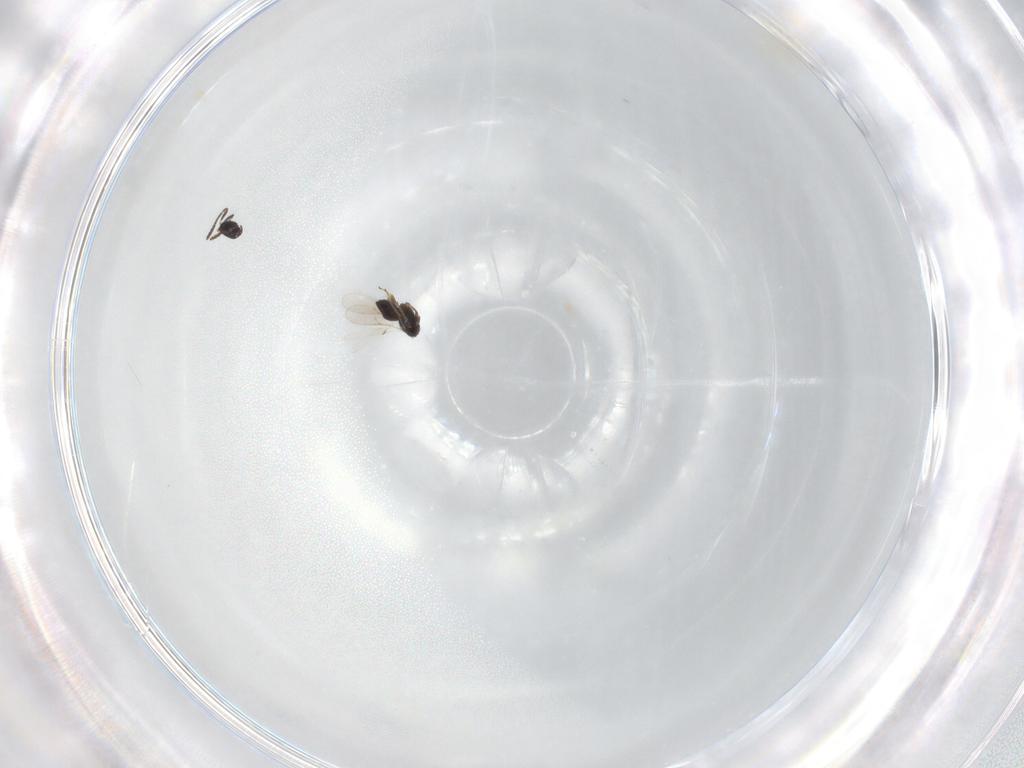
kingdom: Animalia
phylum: Arthropoda
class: Insecta
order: Hymenoptera
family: Scelionidae
